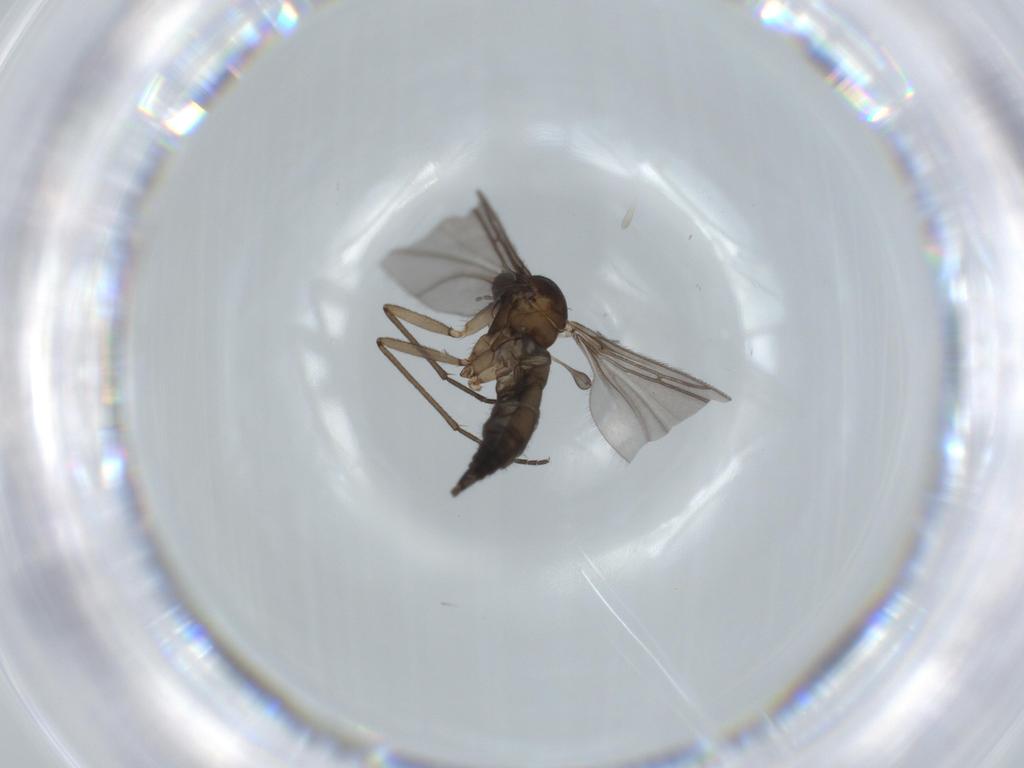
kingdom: Animalia
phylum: Arthropoda
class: Insecta
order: Diptera
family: Sciaridae
